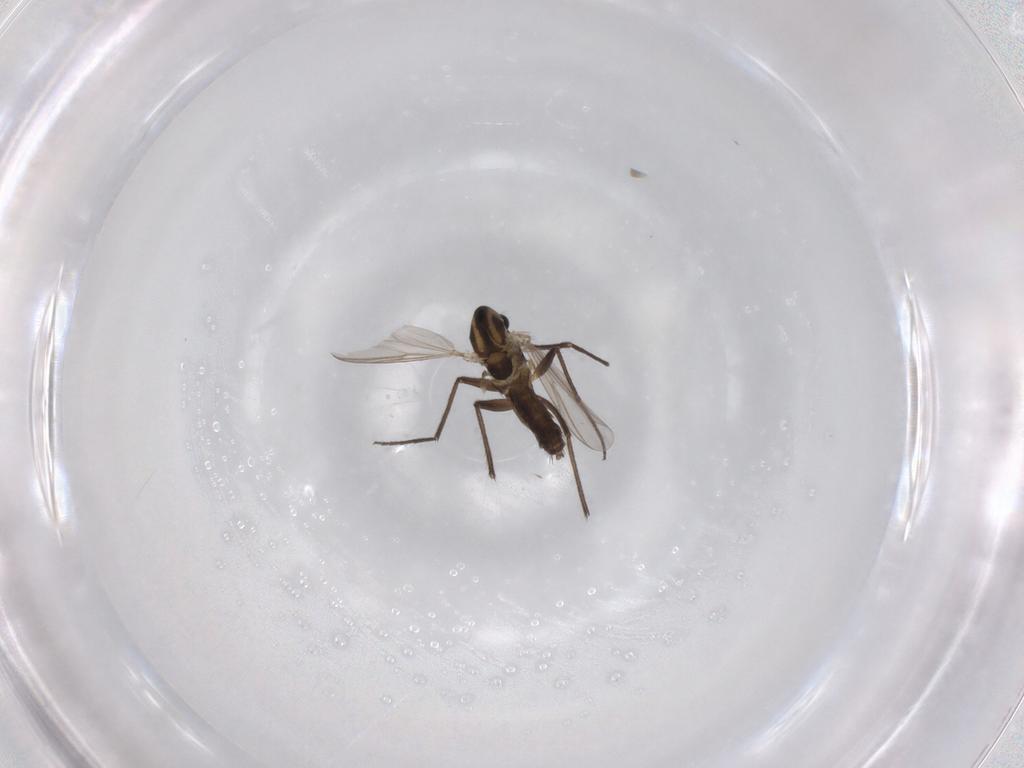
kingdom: Animalia
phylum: Arthropoda
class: Insecta
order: Diptera
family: Chironomidae
